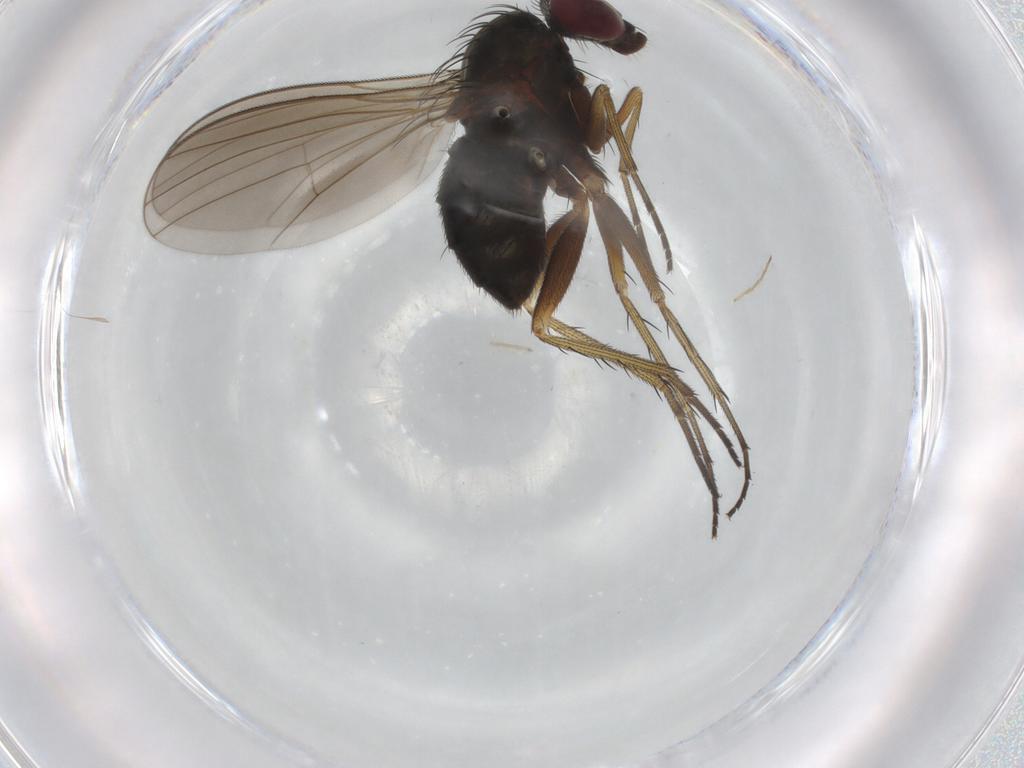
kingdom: Animalia
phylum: Arthropoda
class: Insecta
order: Diptera
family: Dolichopodidae
